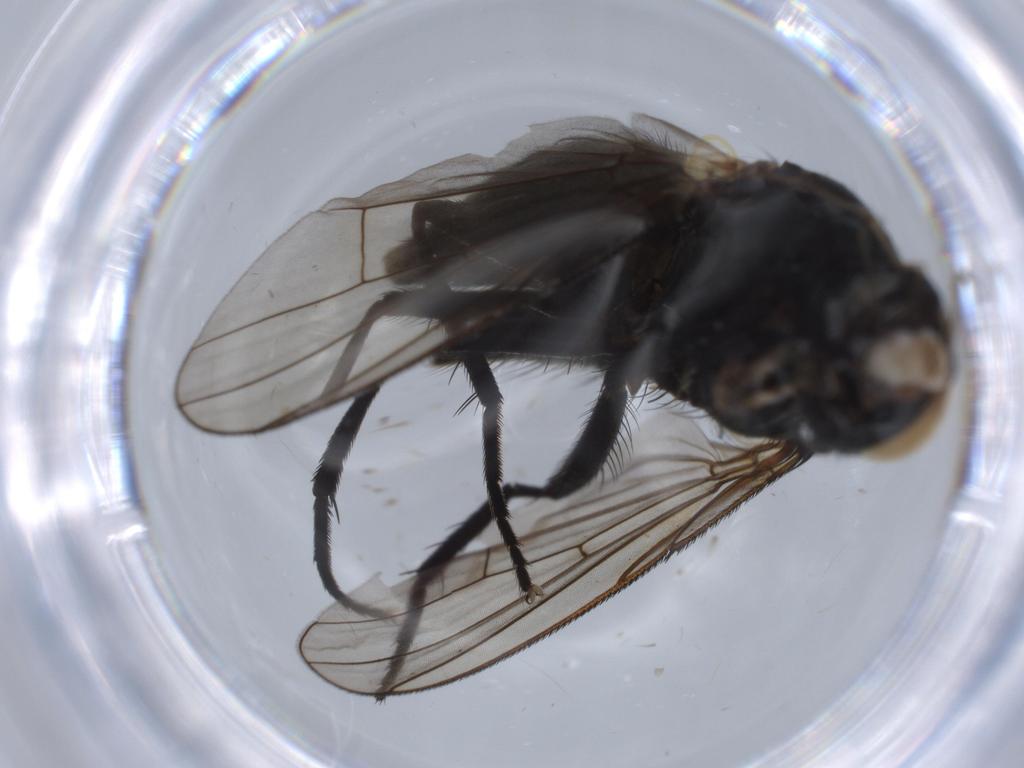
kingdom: Animalia
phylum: Arthropoda
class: Insecta
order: Diptera
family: Muscidae
